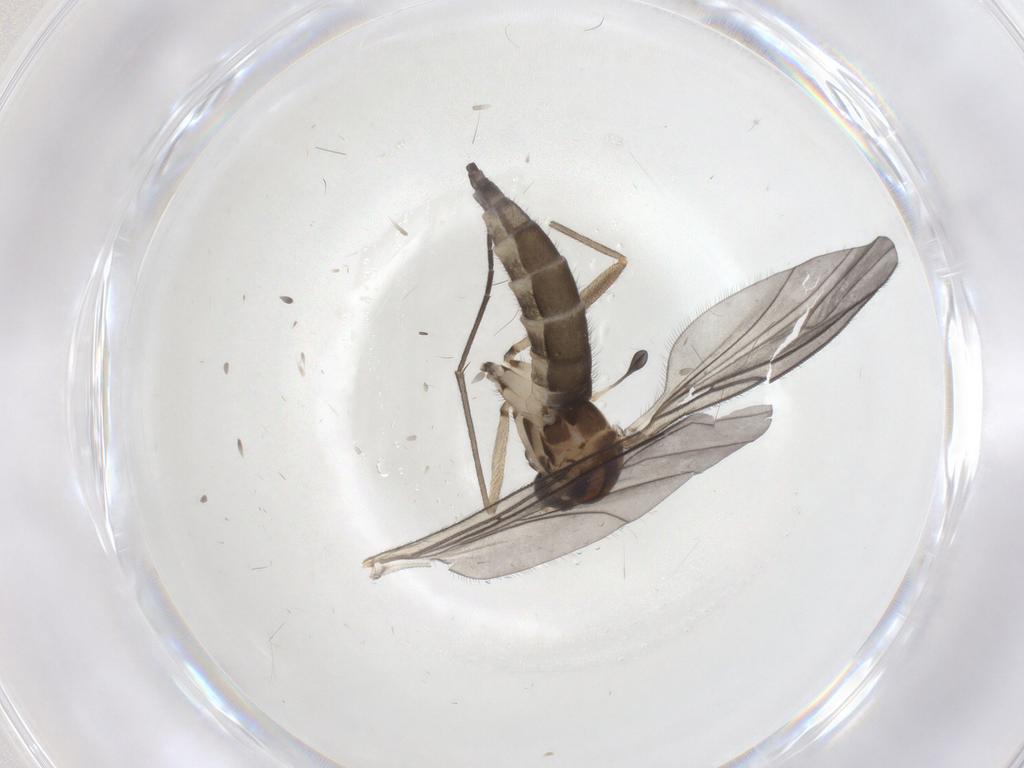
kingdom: Animalia
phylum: Arthropoda
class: Insecta
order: Diptera
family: Sciaridae
